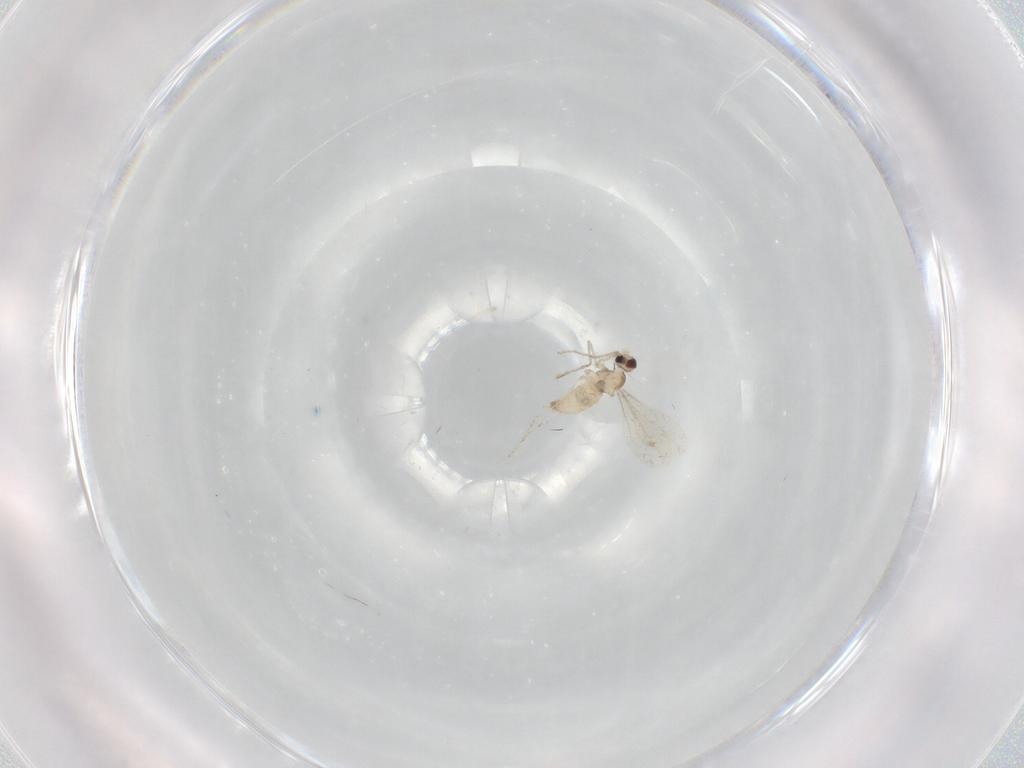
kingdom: Animalia
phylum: Arthropoda
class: Insecta
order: Diptera
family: Cecidomyiidae
